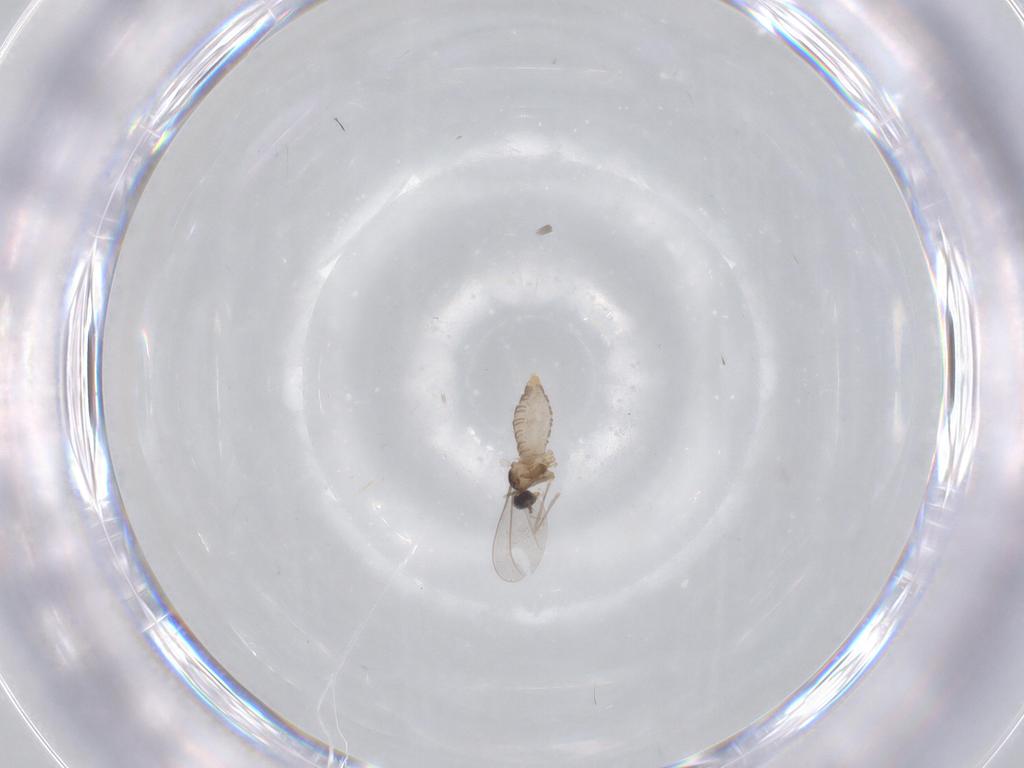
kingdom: Animalia
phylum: Arthropoda
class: Insecta
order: Diptera
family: Cecidomyiidae
